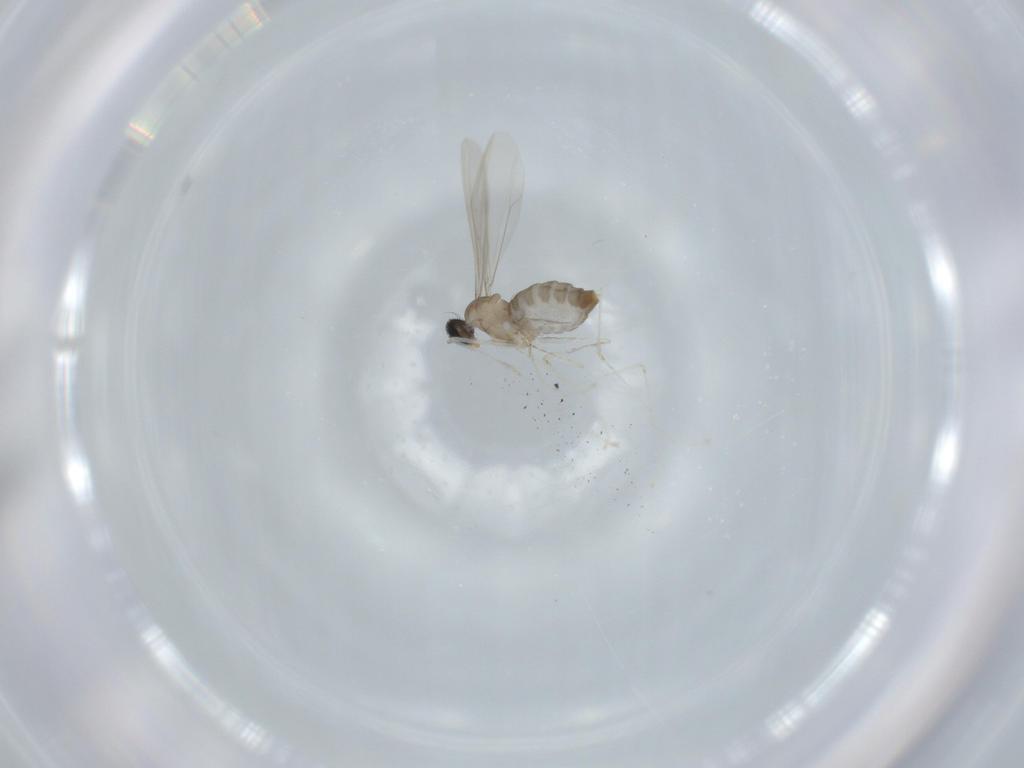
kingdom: Animalia
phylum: Arthropoda
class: Insecta
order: Diptera
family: Cecidomyiidae
